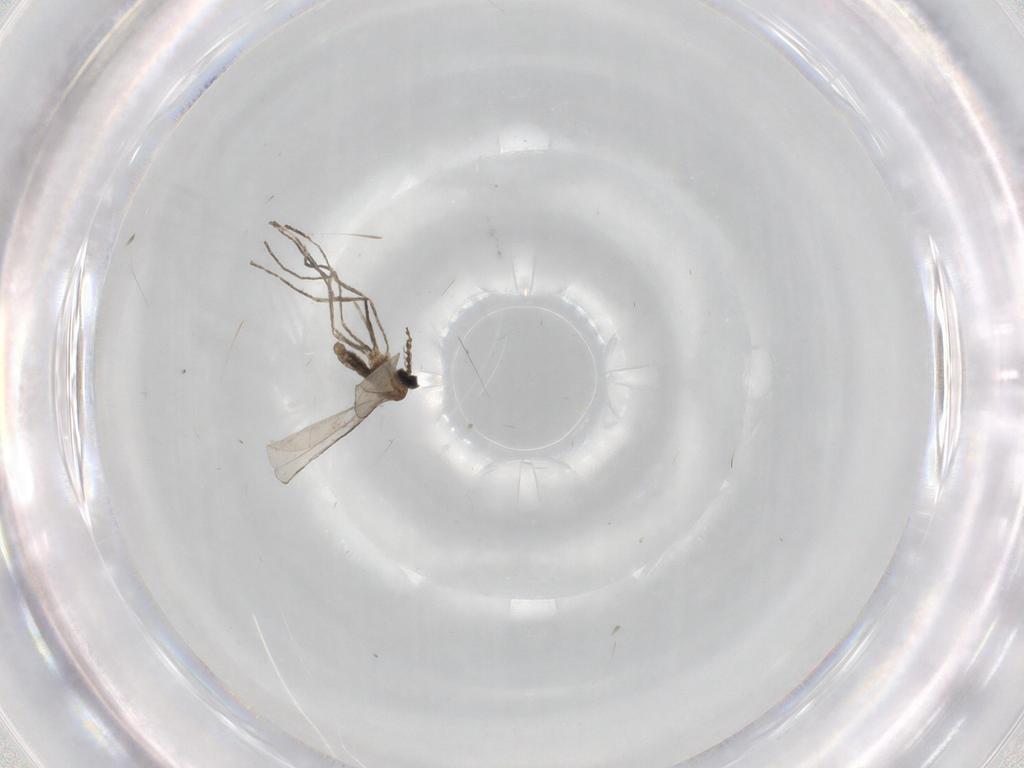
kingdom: Animalia
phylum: Arthropoda
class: Insecta
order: Diptera
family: Cecidomyiidae
